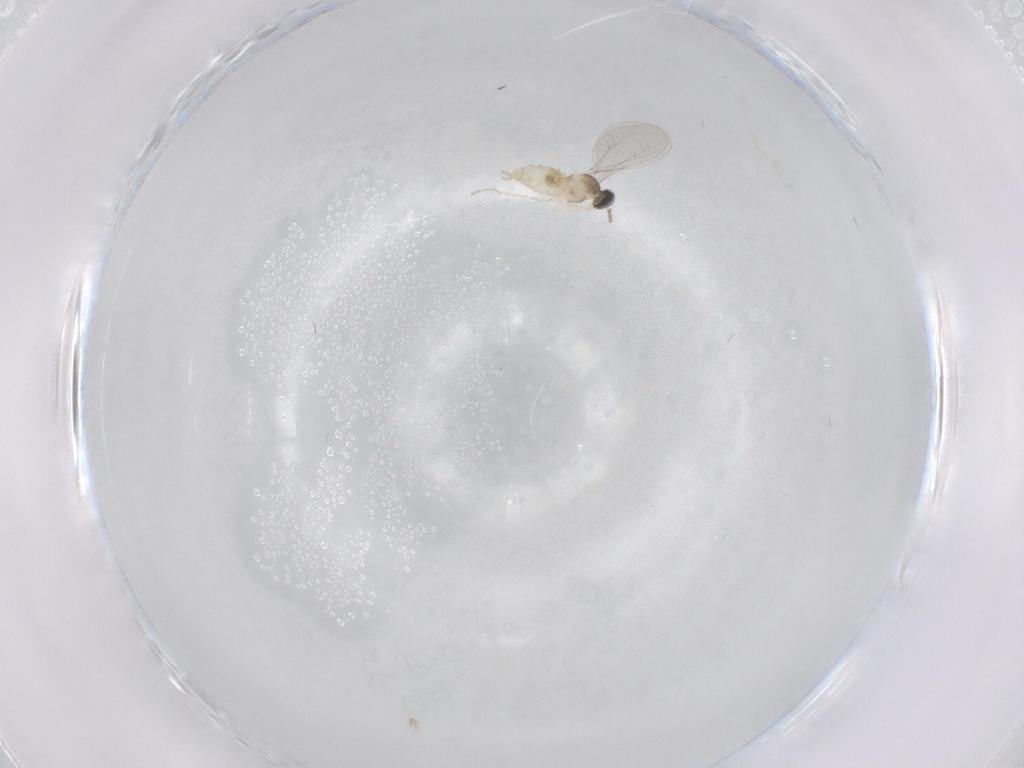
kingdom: Animalia
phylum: Arthropoda
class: Insecta
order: Diptera
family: Cecidomyiidae
